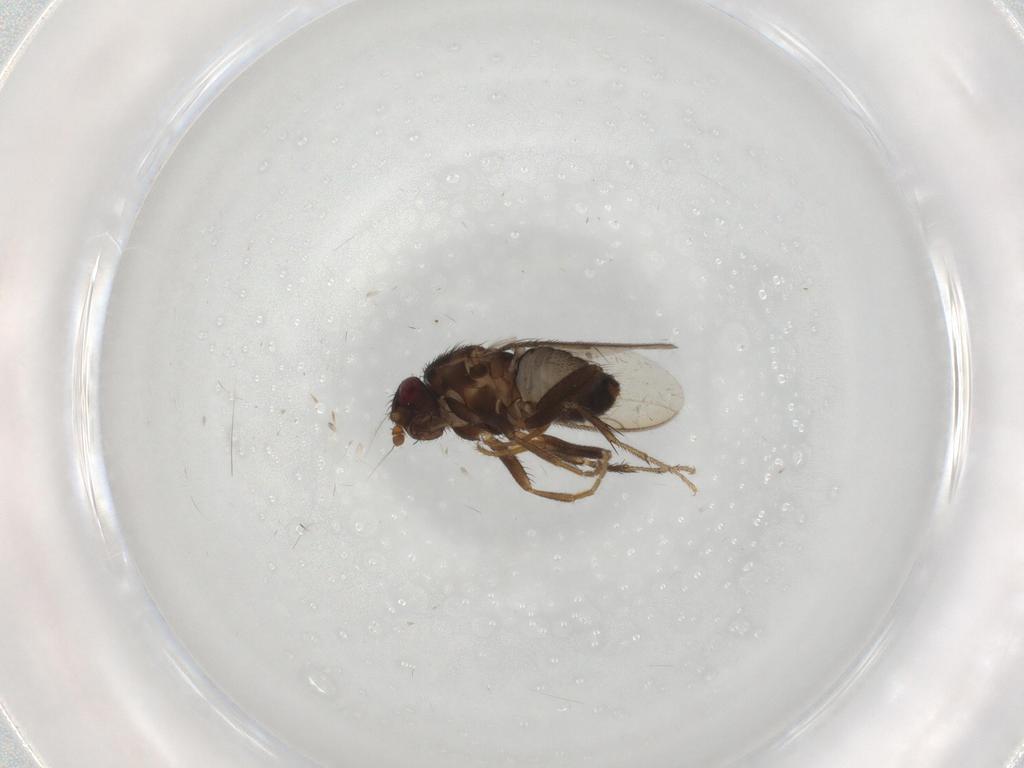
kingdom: Animalia
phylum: Arthropoda
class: Insecta
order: Diptera
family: Sphaeroceridae
